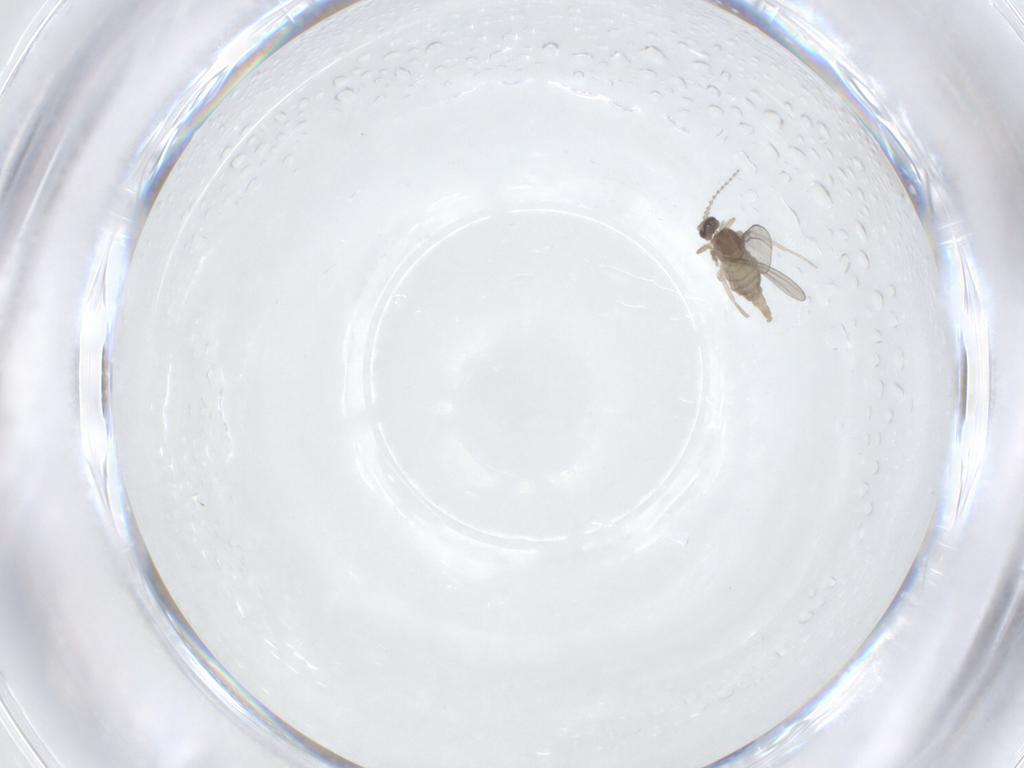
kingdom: Animalia
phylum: Arthropoda
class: Insecta
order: Diptera
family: Cecidomyiidae
